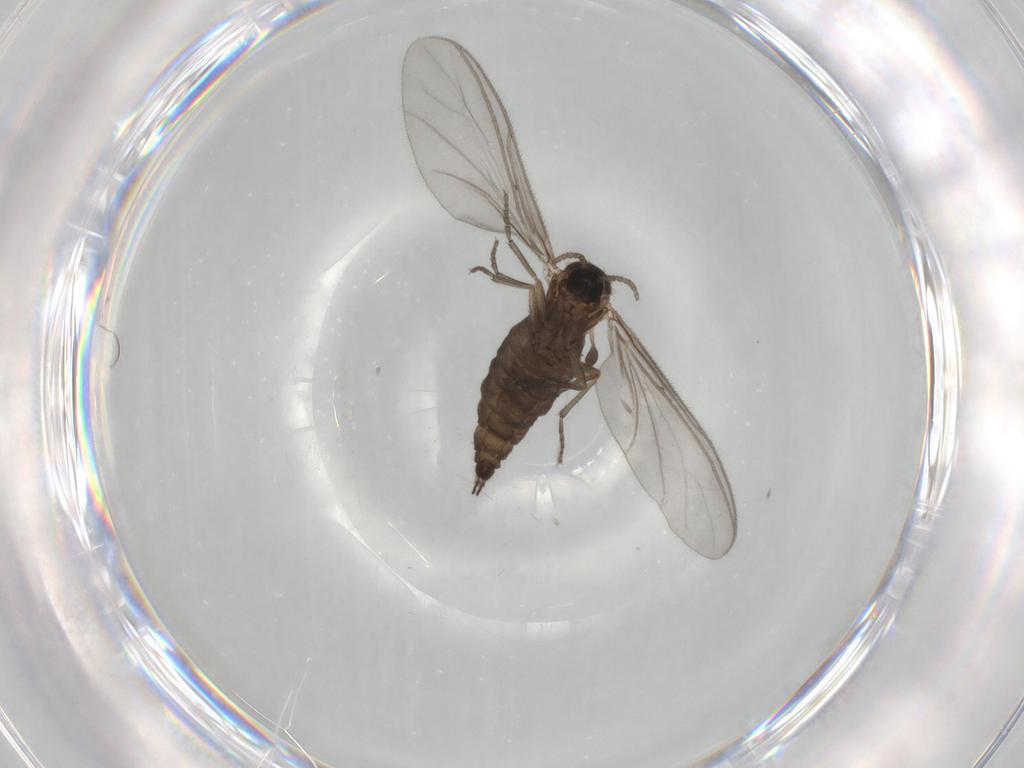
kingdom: Animalia
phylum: Arthropoda
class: Insecta
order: Diptera
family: Sciaridae
